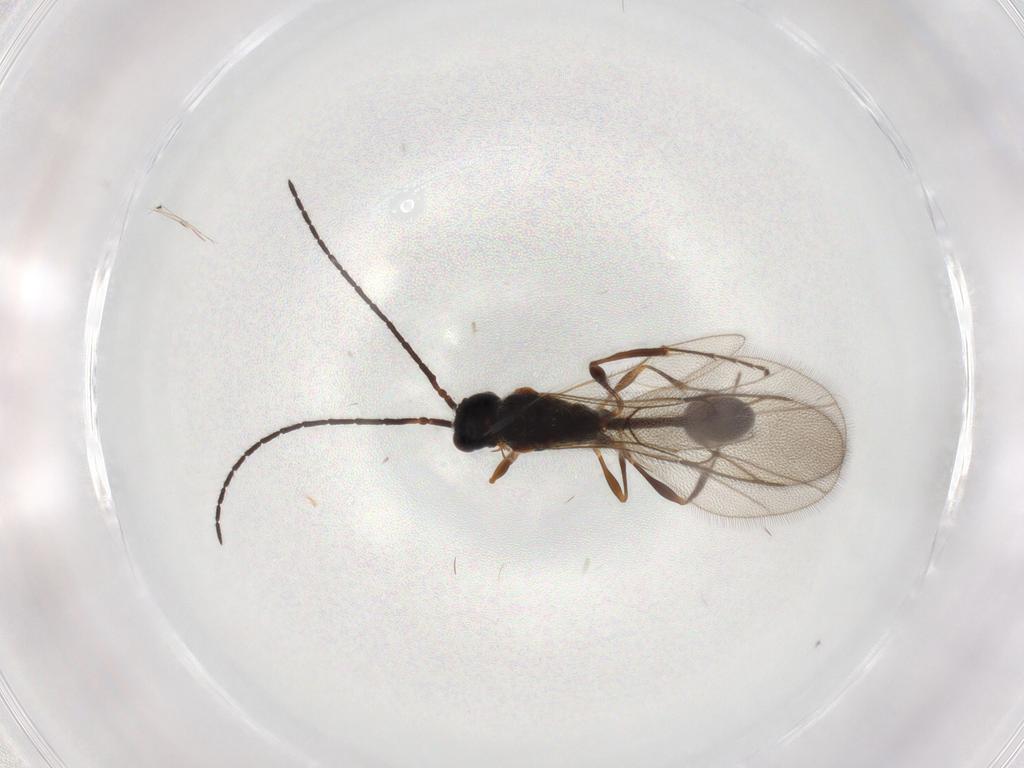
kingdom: Animalia
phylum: Arthropoda
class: Insecta
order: Hymenoptera
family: Diapriidae
